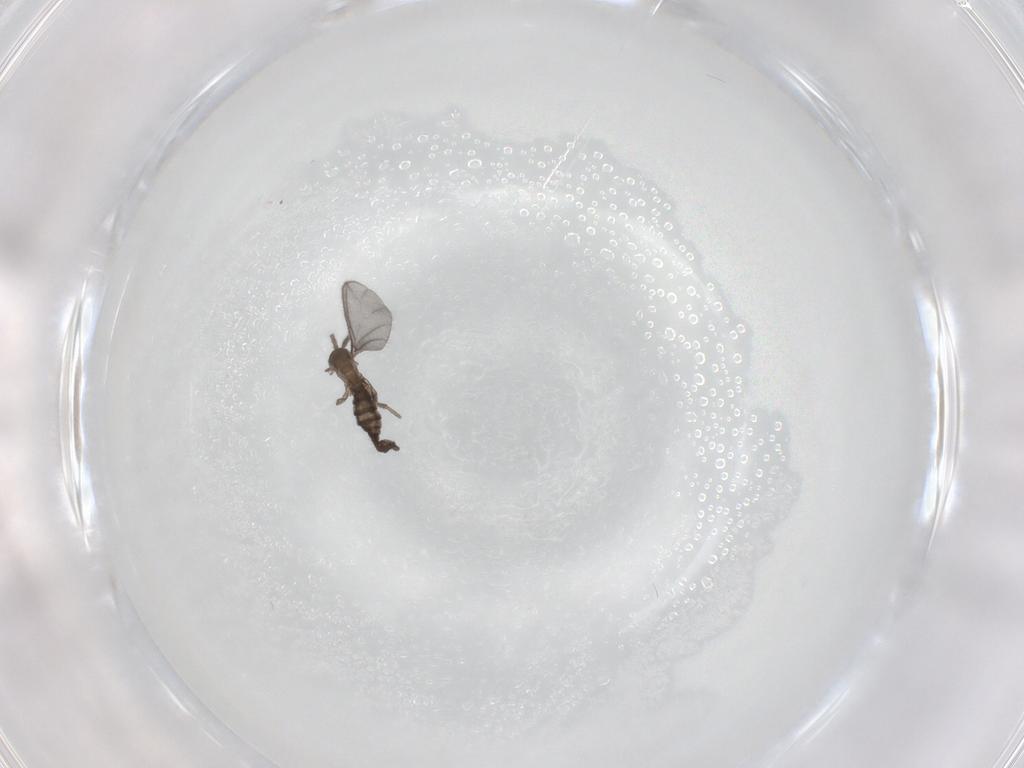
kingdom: Animalia
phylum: Arthropoda
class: Insecta
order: Diptera
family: Sciaridae
